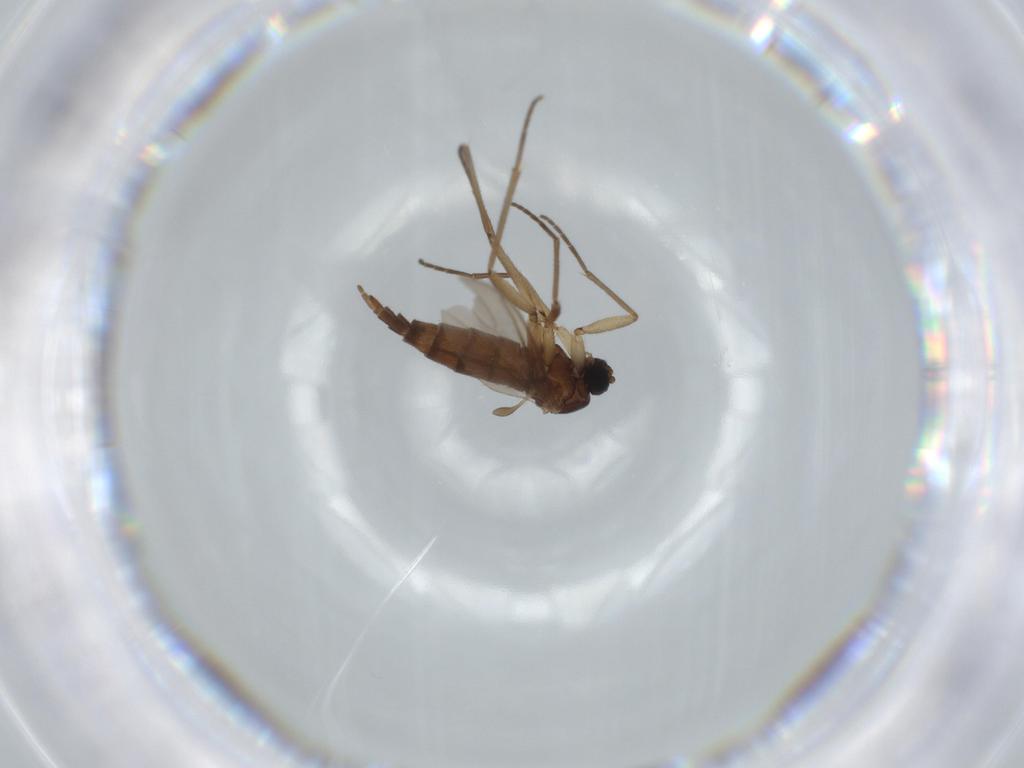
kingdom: Animalia
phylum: Arthropoda
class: Insecta
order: Diptera
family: Sciaridae
